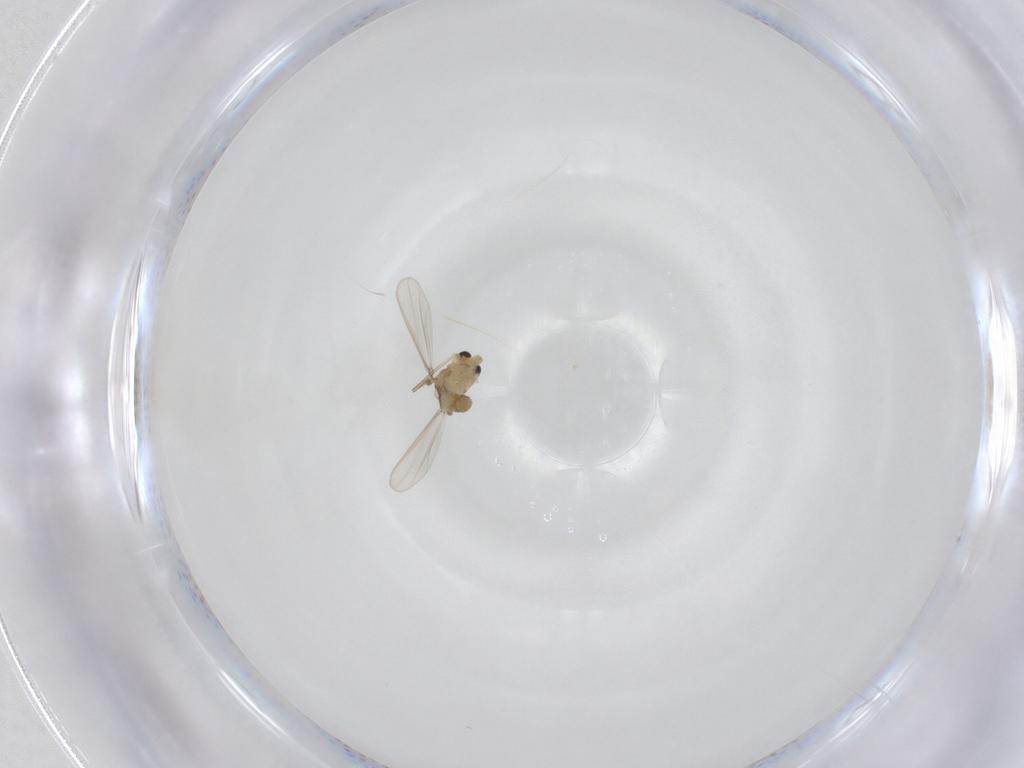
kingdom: Animalia
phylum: Arthropoda
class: Insecta
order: Diptera
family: Chironomidae
